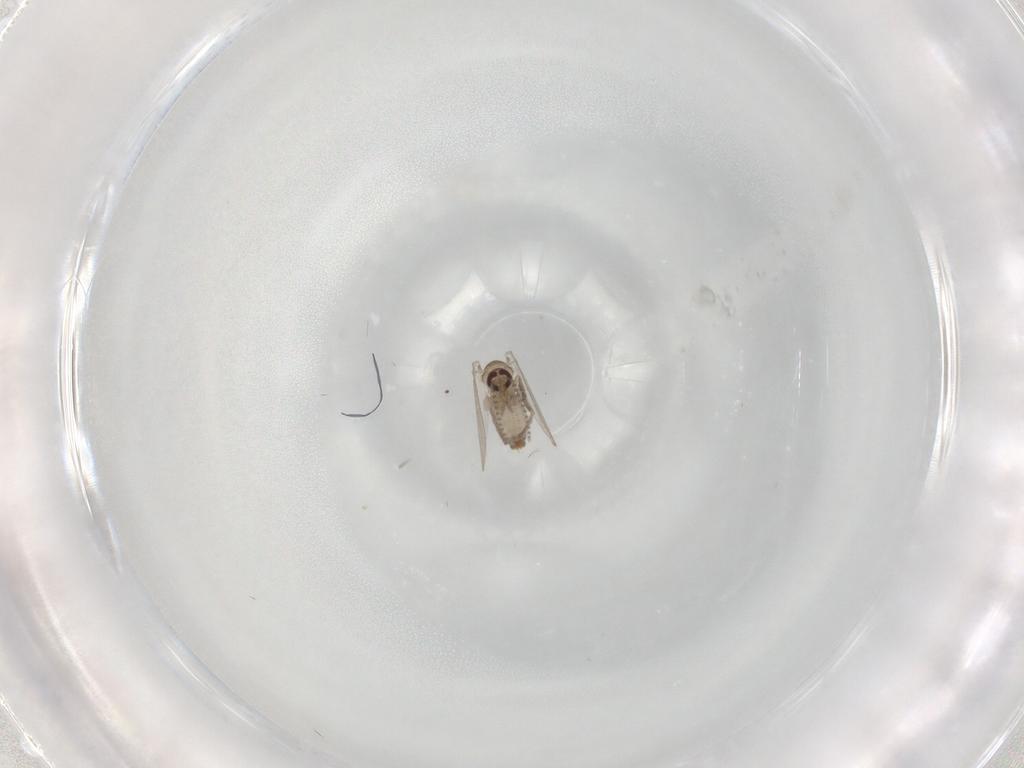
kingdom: Animalia
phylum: Arthropoda
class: Insecta
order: Diptera
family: Psychodidae
